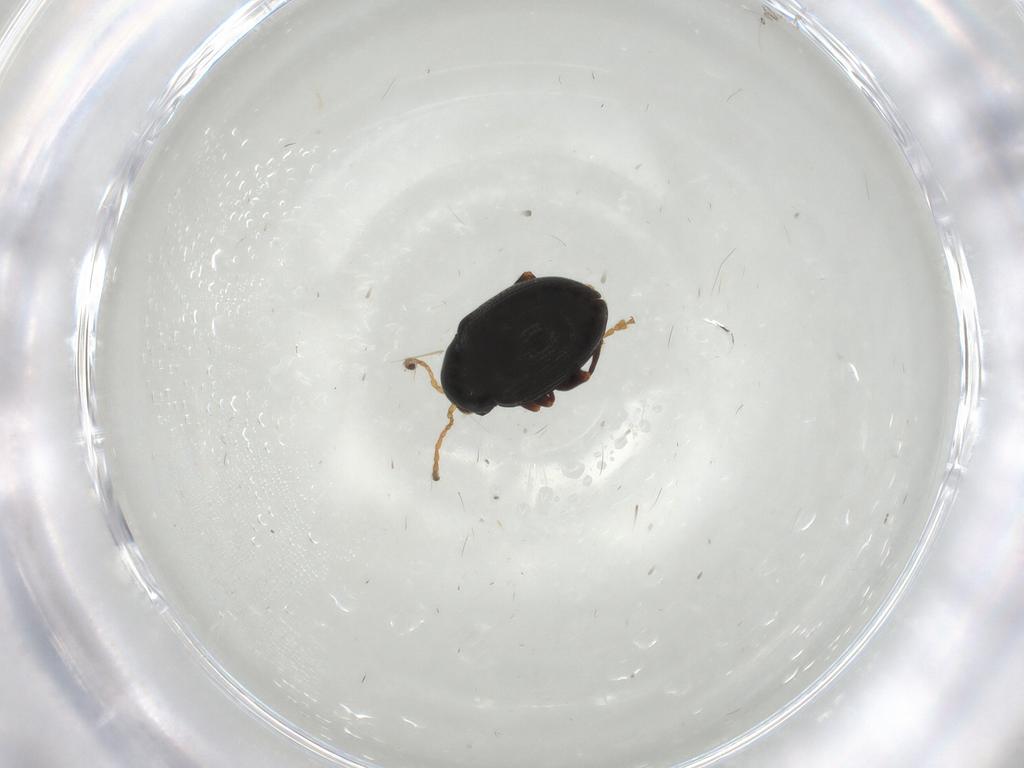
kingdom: Animalia
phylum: Arthropoda
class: Insecta
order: Coleoptera
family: Chrysomelidae
